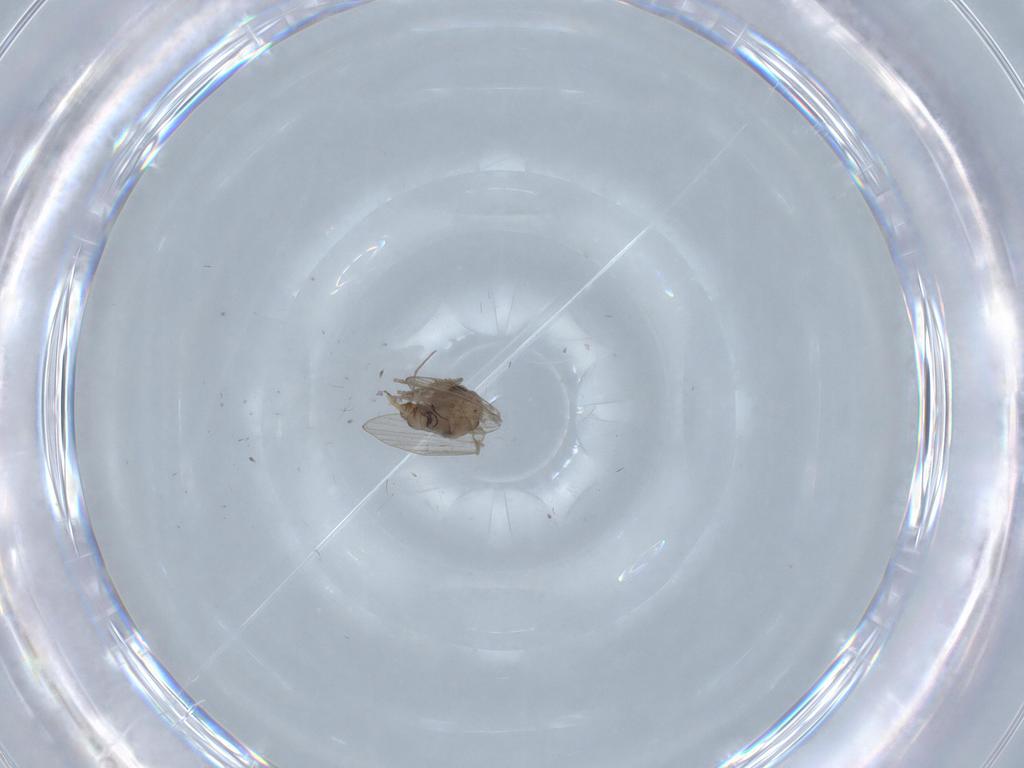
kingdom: Animalia
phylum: Arthropoda
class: Insecta
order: Diptera
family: Psychodidae
